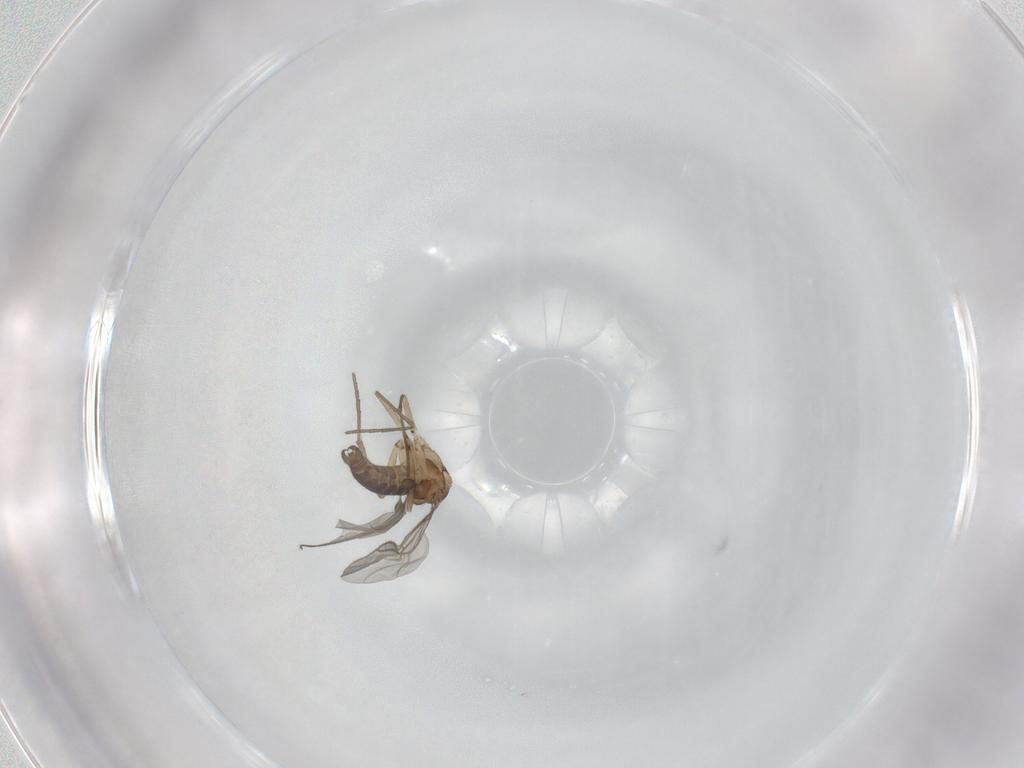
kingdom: Animalia
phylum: Arthropoda
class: Insecta
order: Diptera
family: Sciaridae
